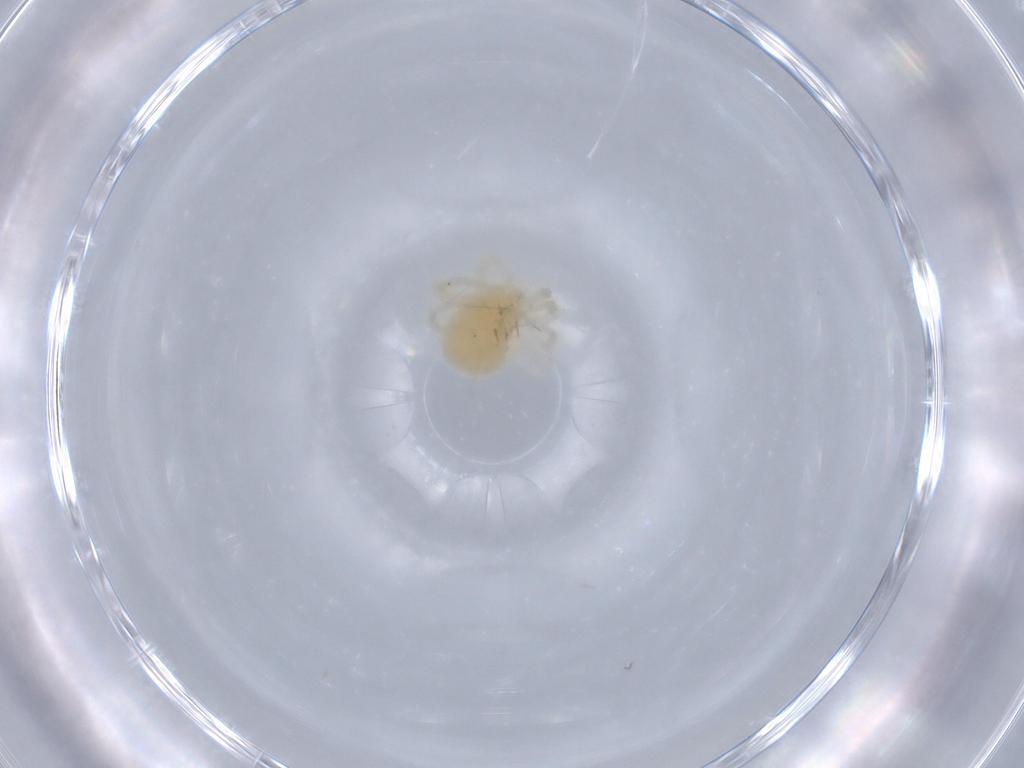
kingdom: Animalia
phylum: Arthropoda
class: Arachnida
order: Trombidiformes
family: Anystidae
